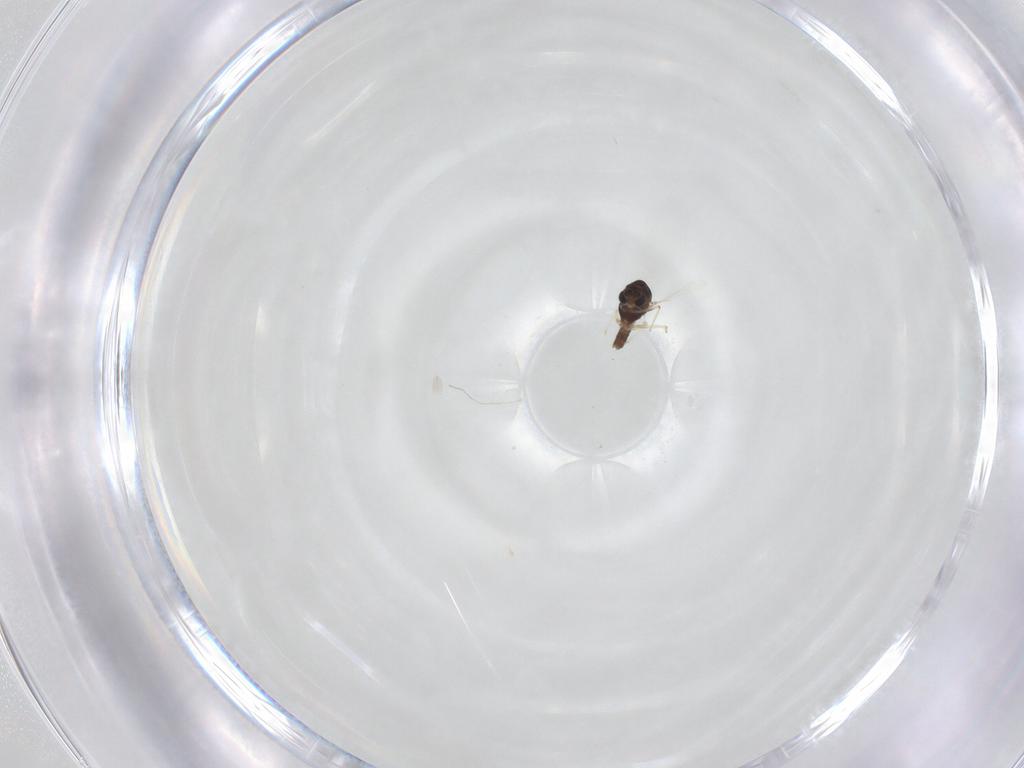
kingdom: Animalia
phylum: Arthropoda
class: Insecta
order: Diptera
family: Chironomidae
